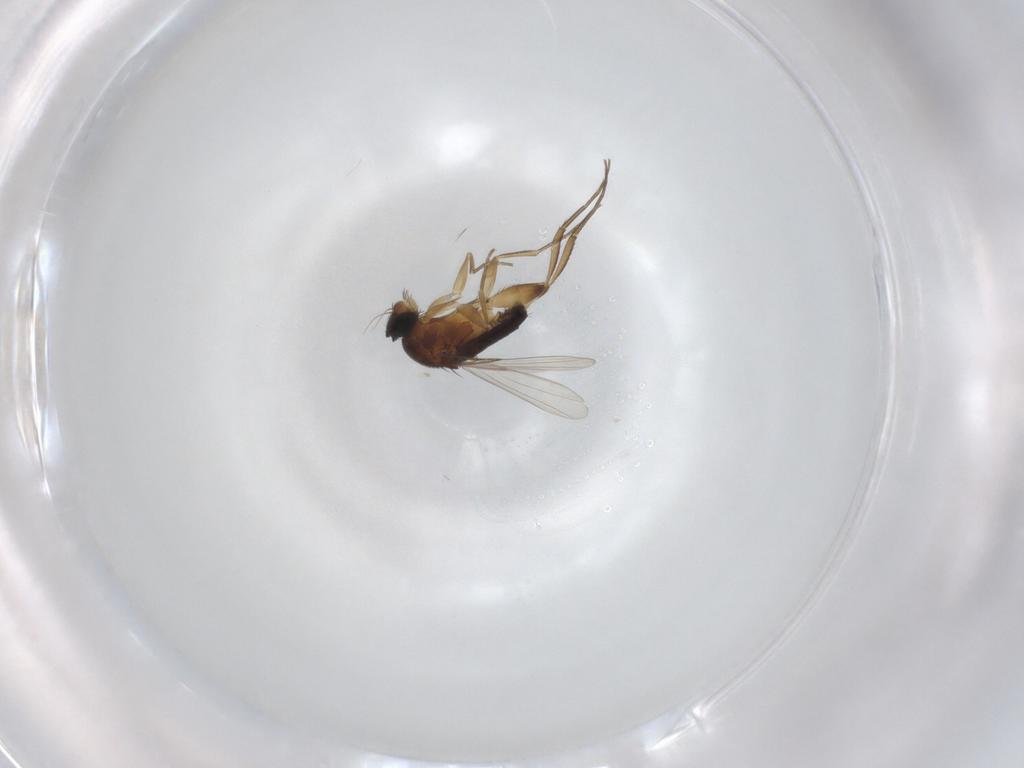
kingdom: Animalia
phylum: Arthropoda
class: Insecta
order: Diptera
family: Phoridae
